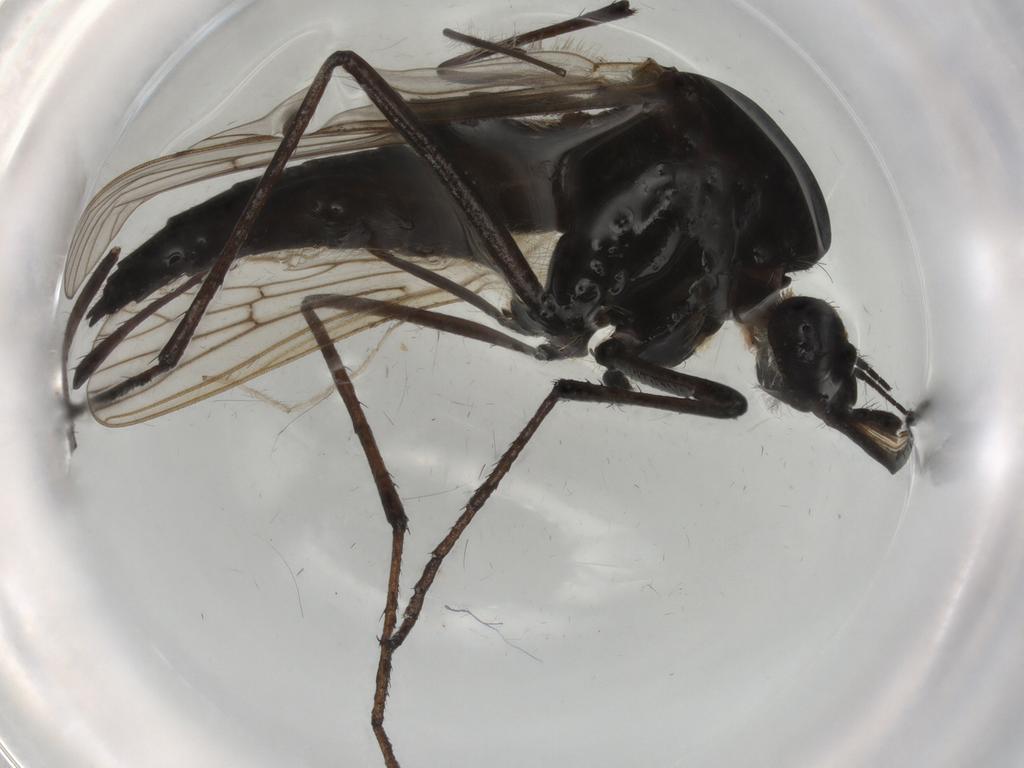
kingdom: Animalia
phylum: Arthropoda
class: Insecta
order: Diptera
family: Chironomidae
